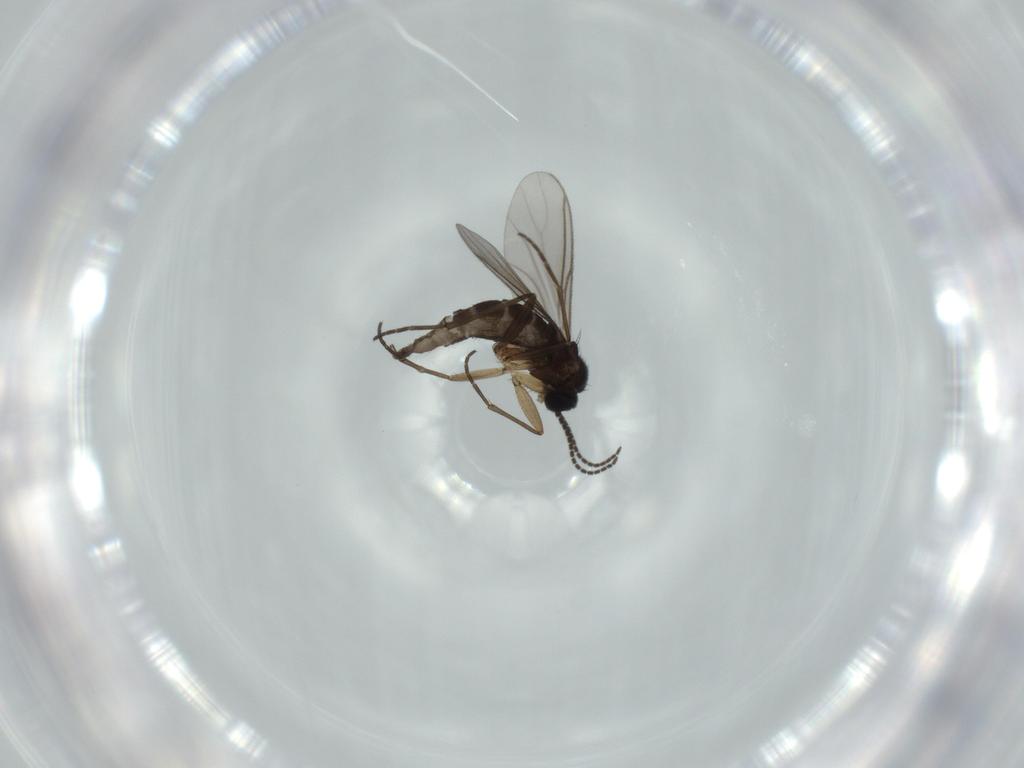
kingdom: Animalia
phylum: Arthropoda
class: Insecta
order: Diptera
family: Sciaridae
